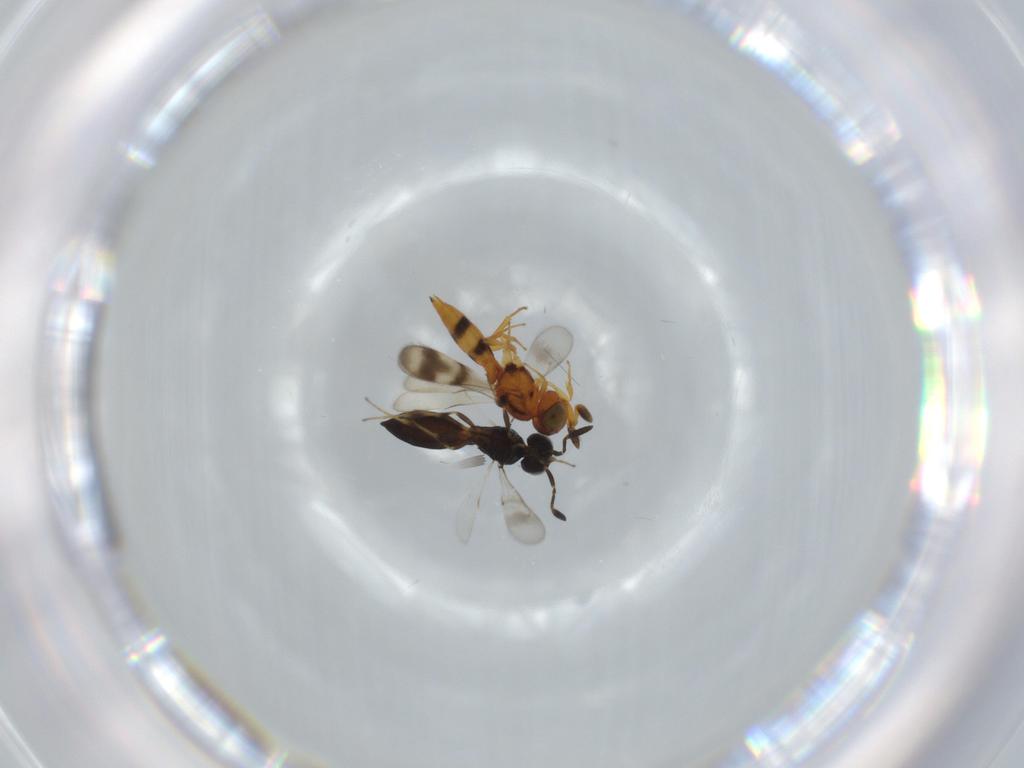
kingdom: Animalia
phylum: Arthropoda
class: Insecta
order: Hymenoptera
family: Scelionidae
